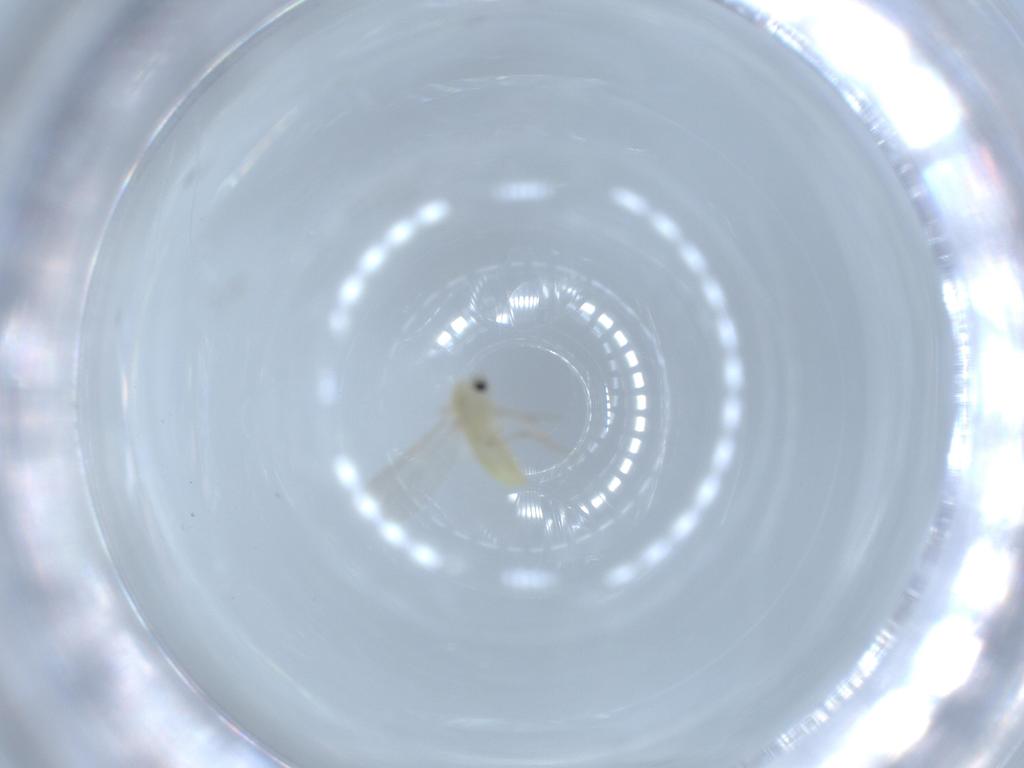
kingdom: Animalia
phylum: Arthropoda
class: Insecta
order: Diptera
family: Chironomidae
